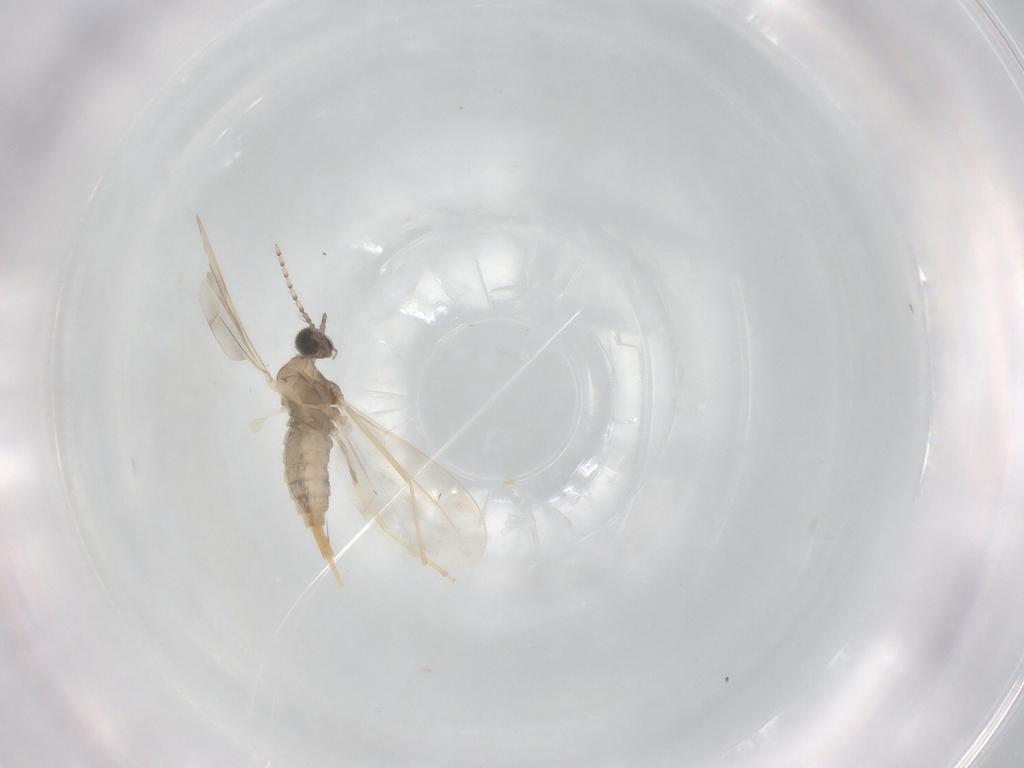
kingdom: Animalia
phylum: Arthropoda
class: Insecta
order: Diptera
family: Cecidomyiidae
